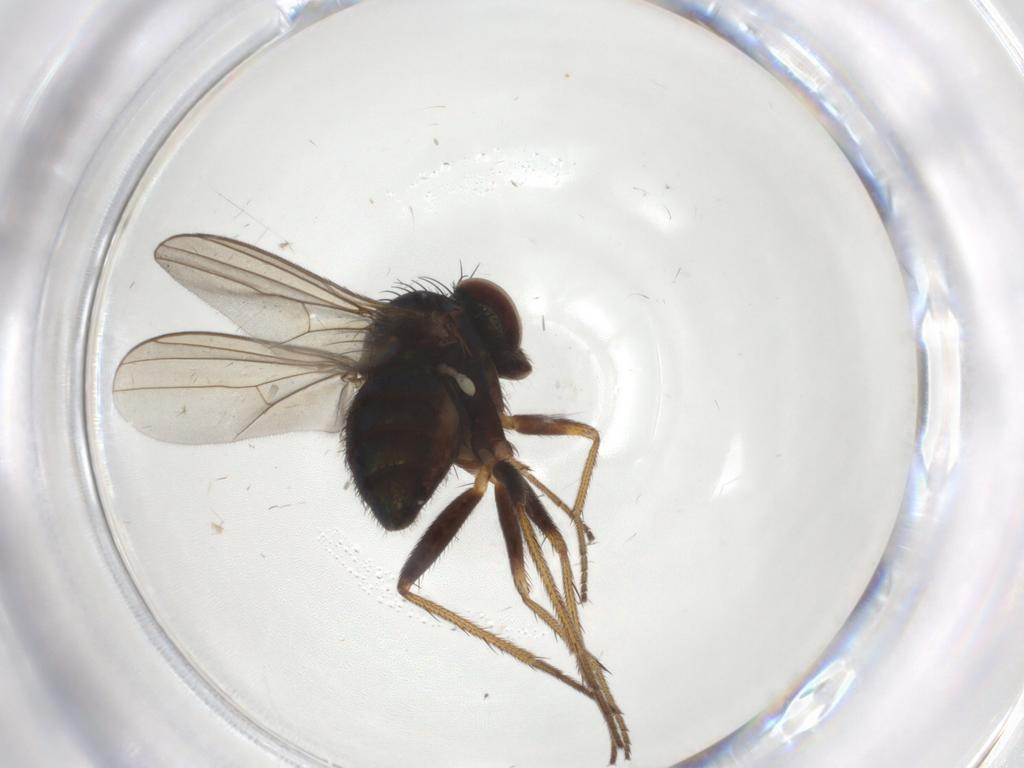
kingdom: Animalia
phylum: Arthropoda
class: Insecta
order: Diptera
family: Chironomidae
